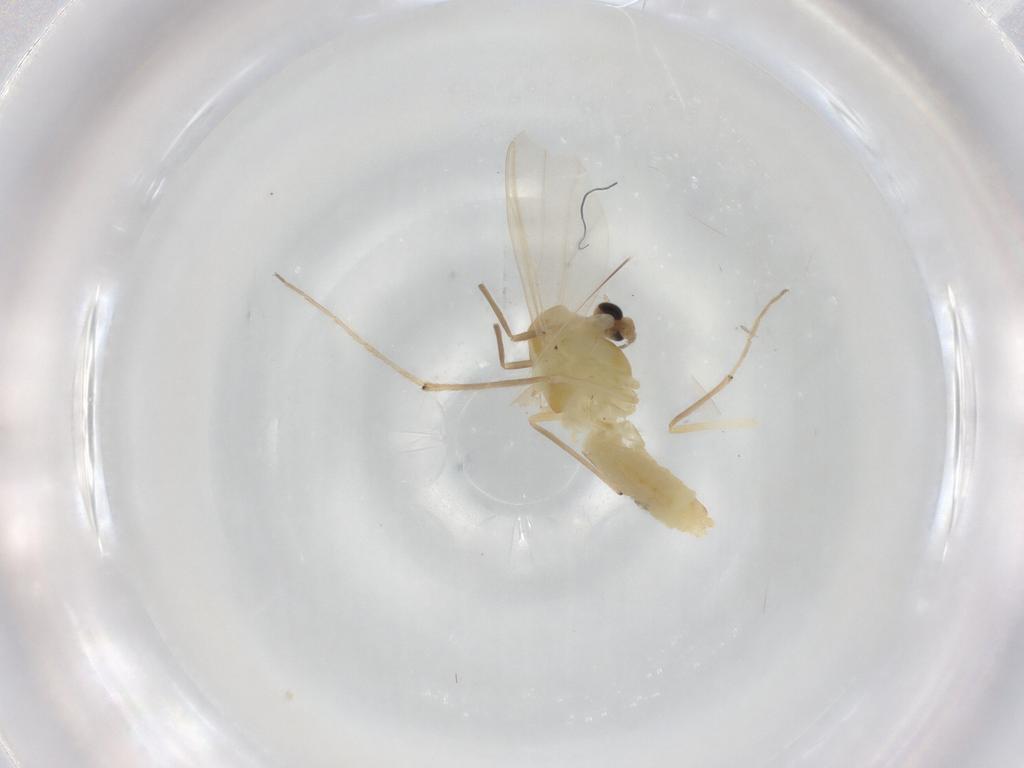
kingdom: Animalia
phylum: Arthropoda
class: Insecta
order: Diptera
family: Chironomidae
